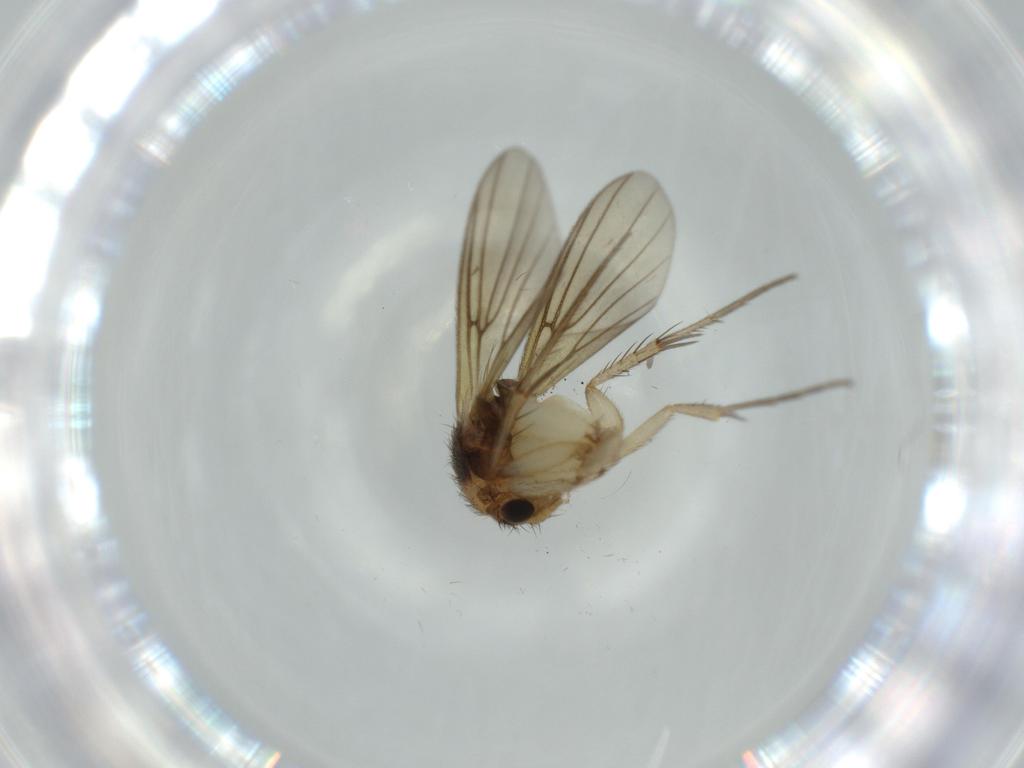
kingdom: Animalia
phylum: Arthropoda
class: Insecta
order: Diptera
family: Sciaridae
